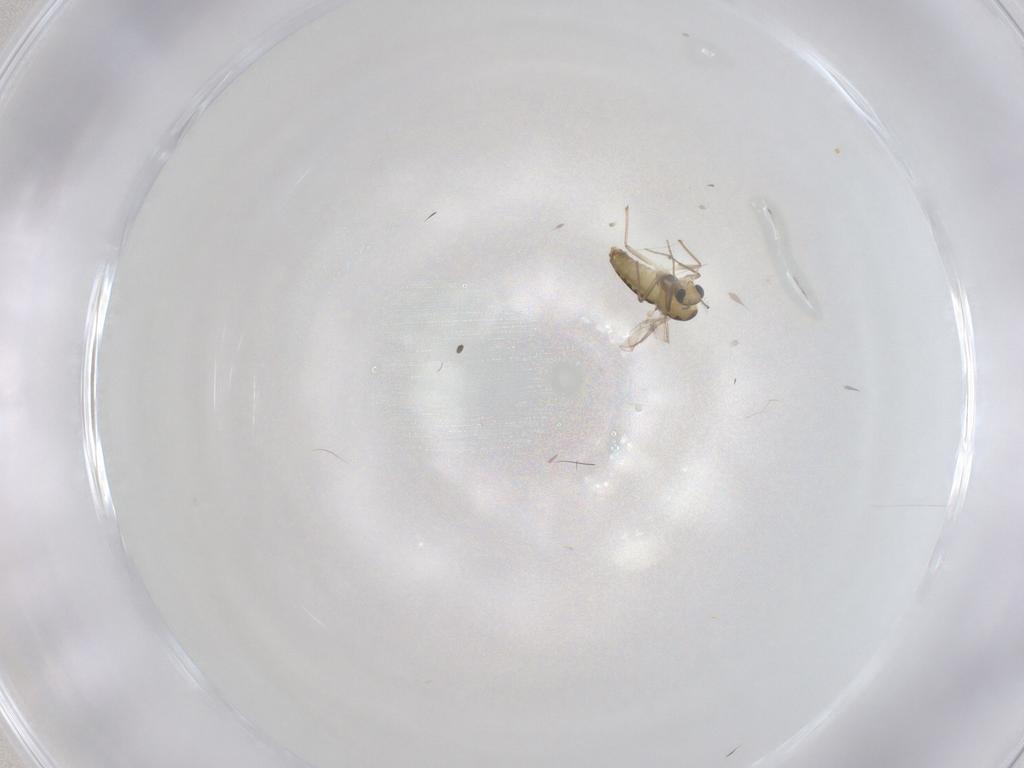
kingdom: Animalia
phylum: Arthropoda
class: Insecta
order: Diptera
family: Chironomidae
